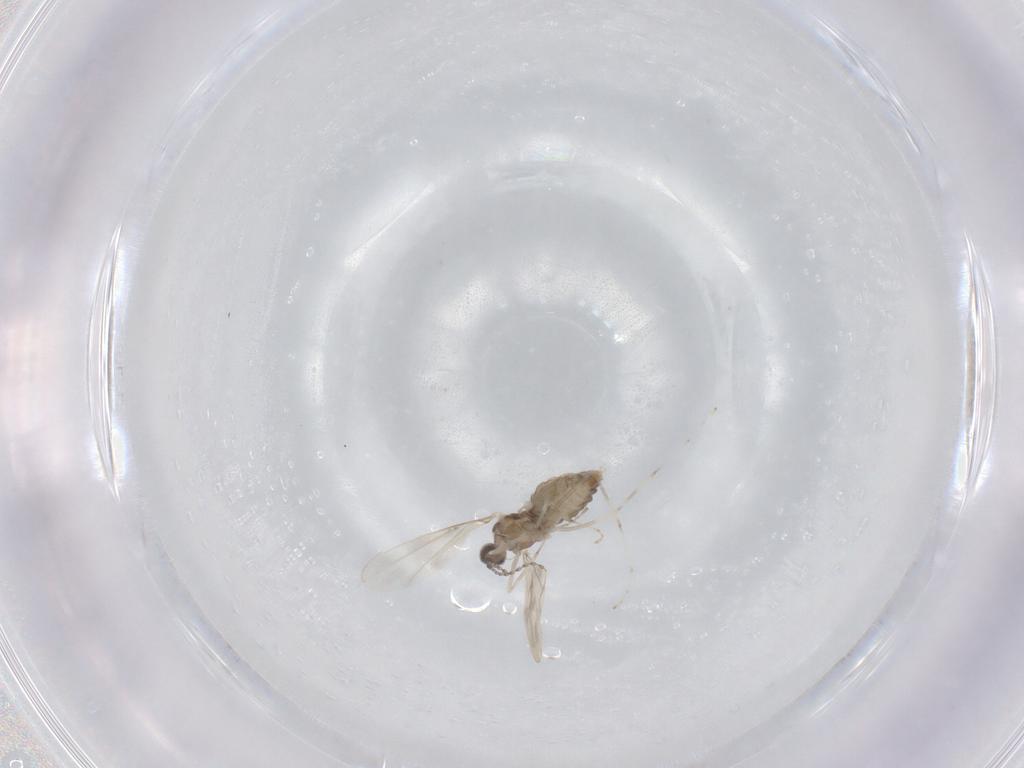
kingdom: Animalia
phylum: Arthropoda
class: Insecta
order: Diptera
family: Cecidomyiidae
